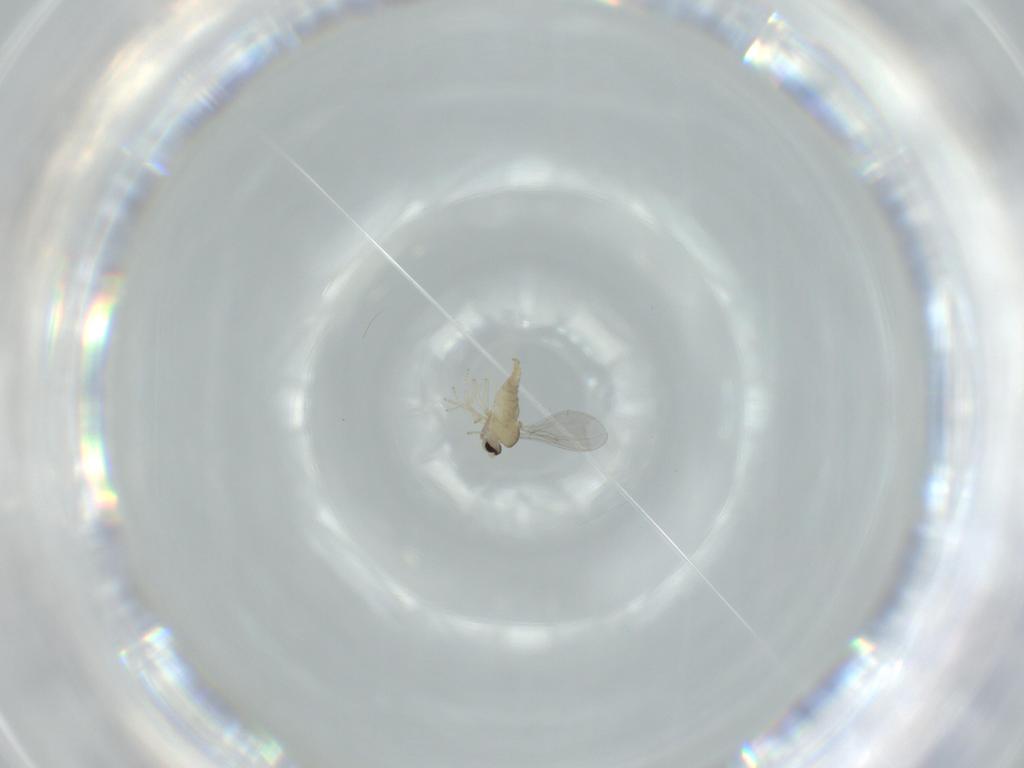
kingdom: Animalia
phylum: Arthropoda
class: Insecta
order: Diptera
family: Cecidomyiidae
